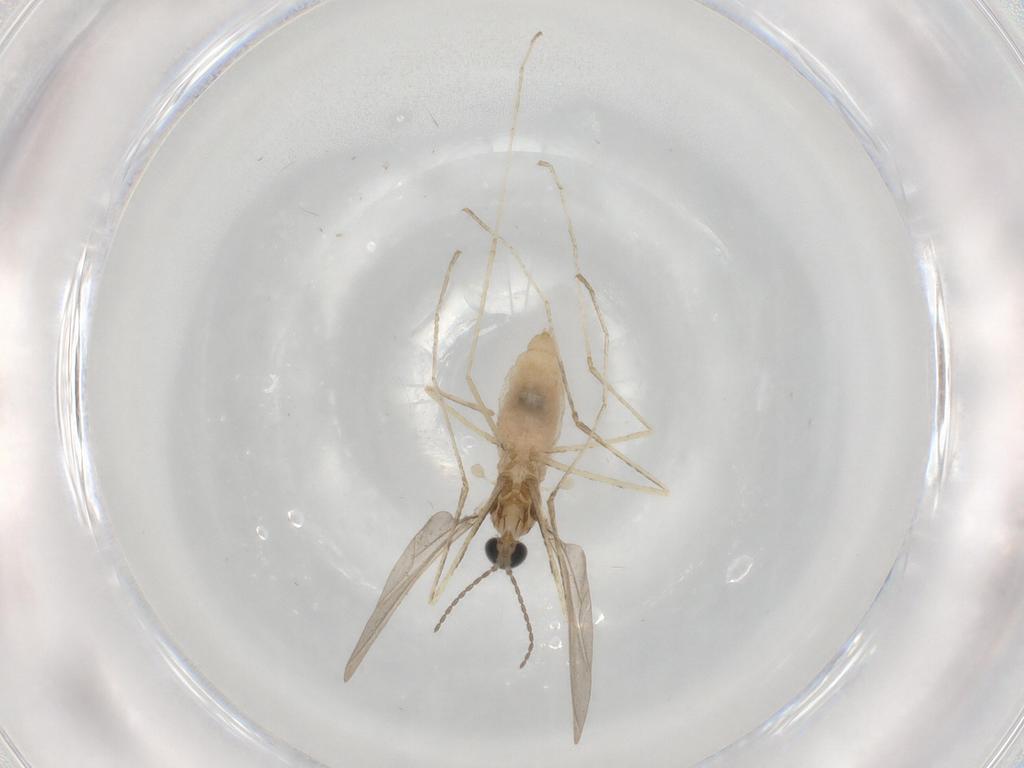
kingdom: Animalia
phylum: Arthropoda
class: Insecta
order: Diptera
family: Cecidomyiidae
